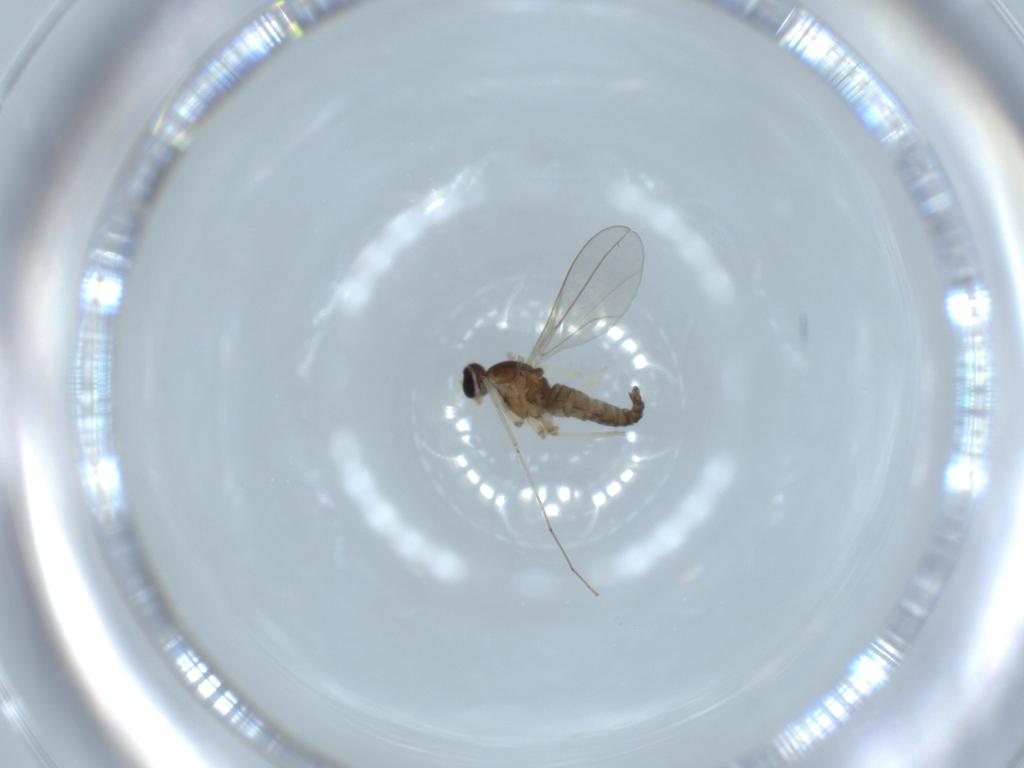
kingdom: Animalia
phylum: Arthropoda
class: Insecta
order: Diptera
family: Cecidomyiidae
